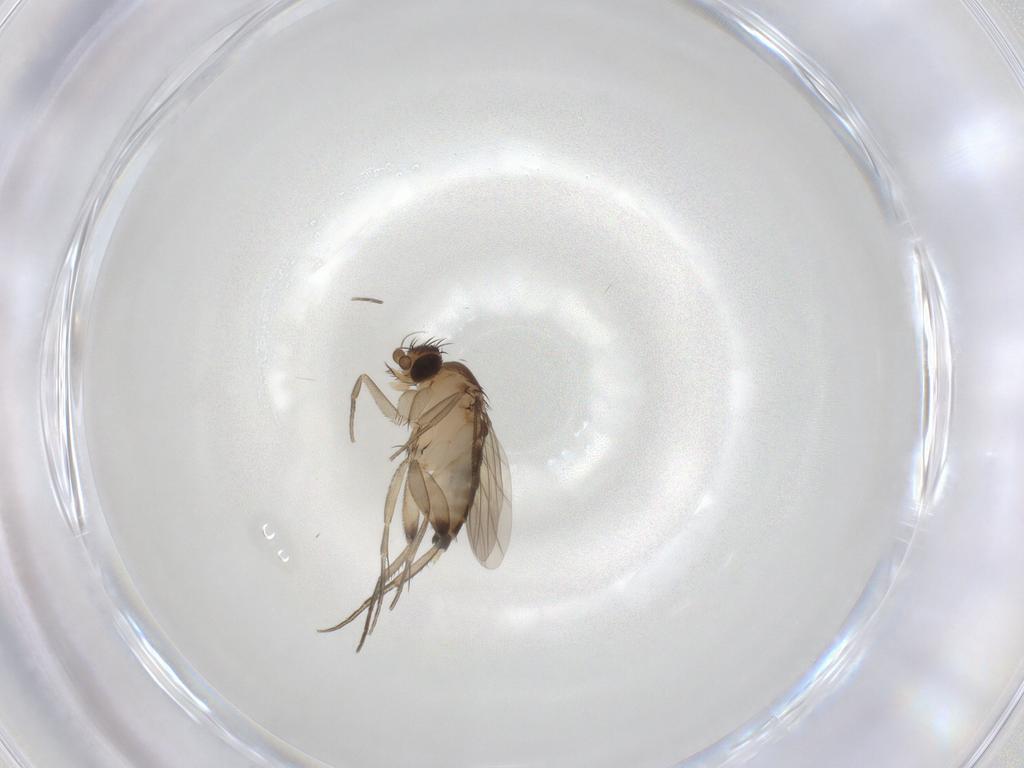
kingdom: Animalia
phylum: Arthropoda
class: Insecta
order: Diptera
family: Phoridae
